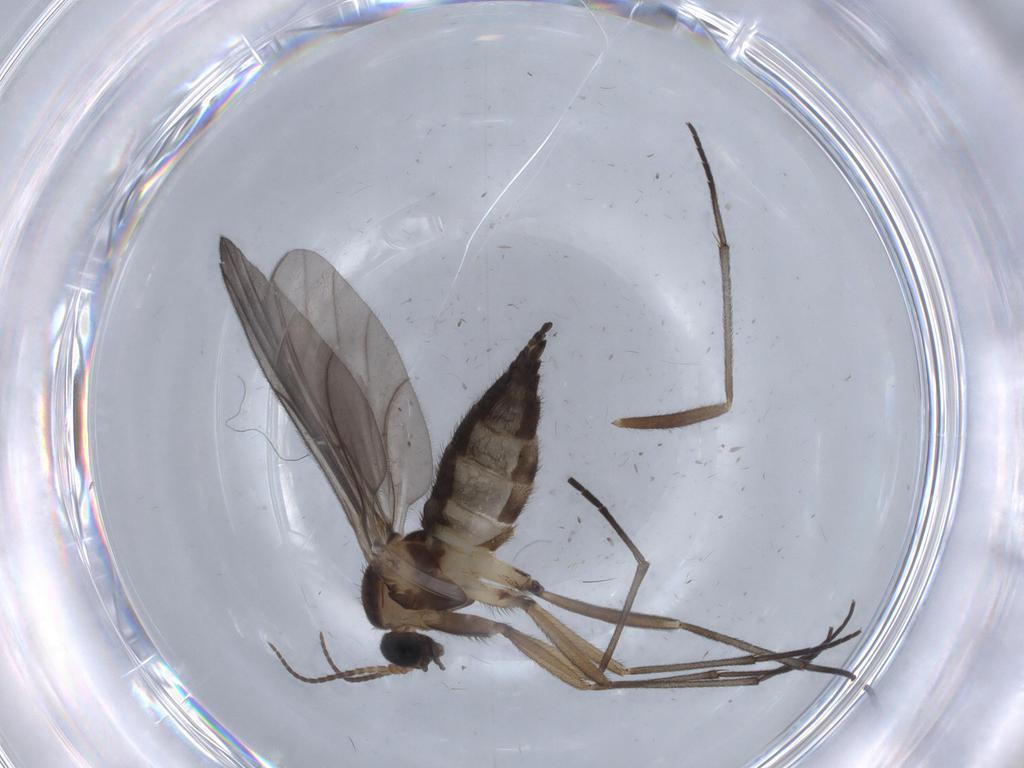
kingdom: Animalia
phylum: Arthropoda
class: Insecta
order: Diptera
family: Sciaridae
